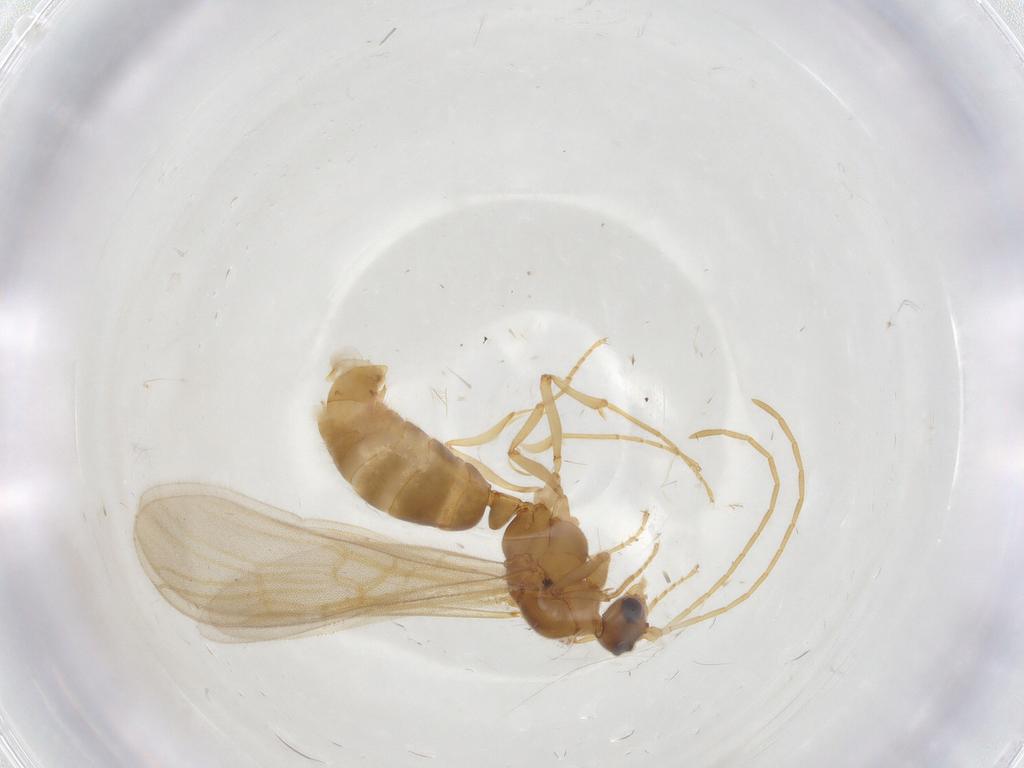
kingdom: Animalia
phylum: Arthropoda
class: Insecta
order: Hymenoptera
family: Formicidae
